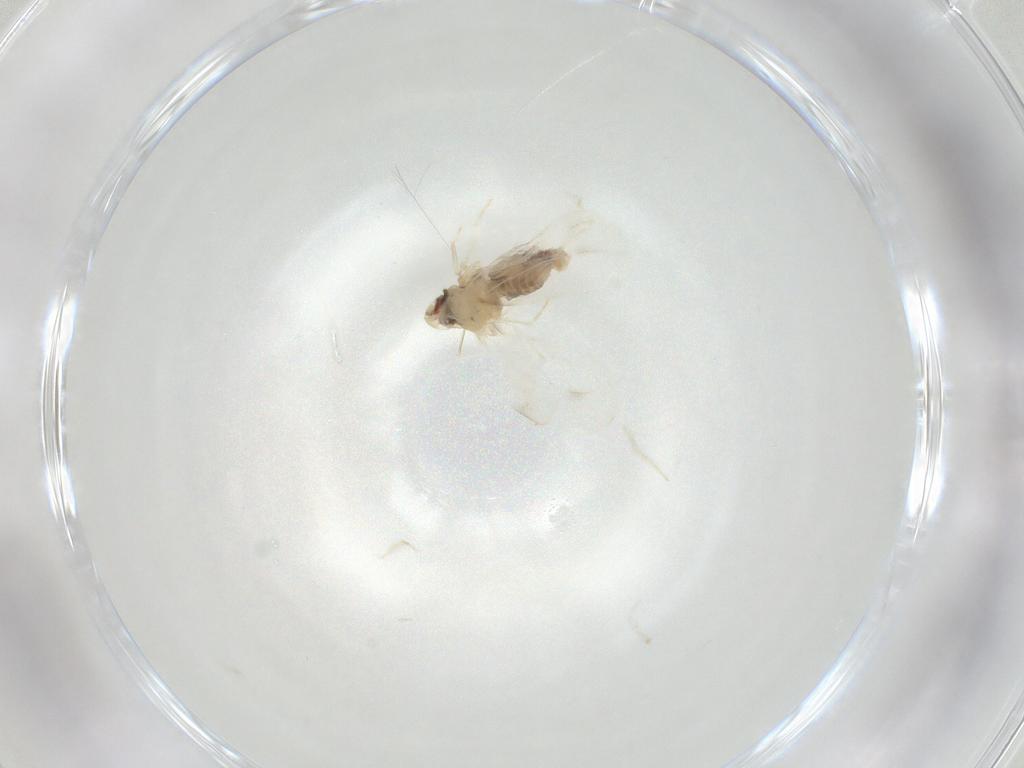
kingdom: Animalia
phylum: Arthropoda
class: Insecta
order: Hemiptera
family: Aleyrodidae
